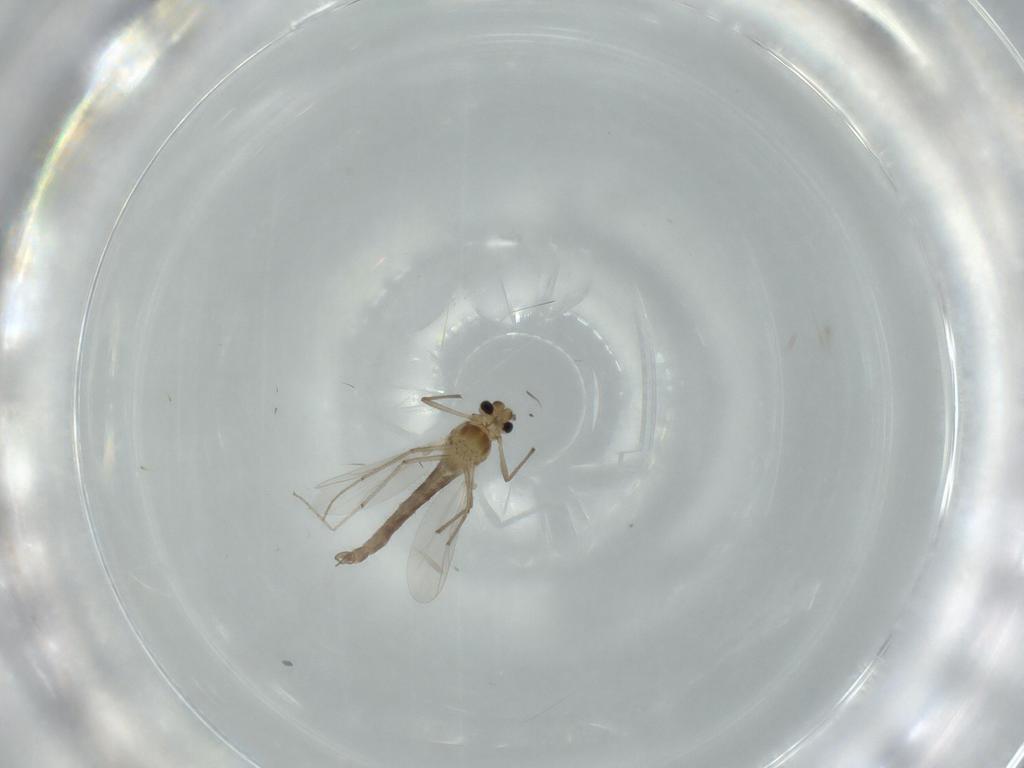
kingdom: Animalia
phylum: Arthropoda
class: Insecta
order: Diptera
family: Chironomidae
